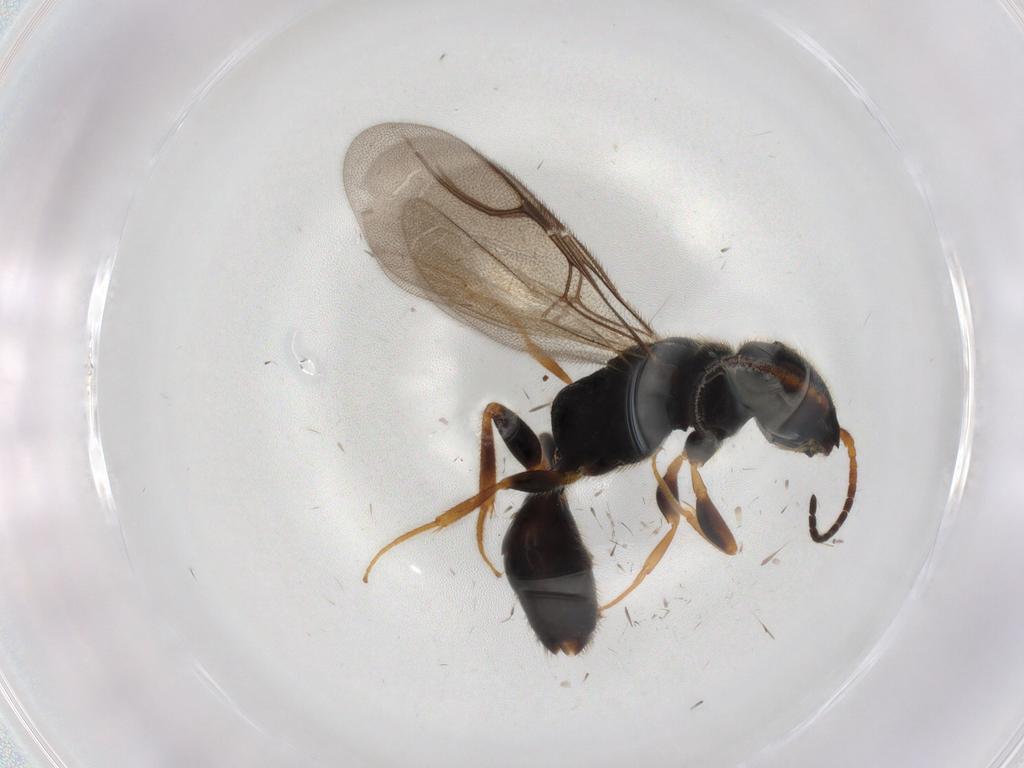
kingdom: Animalia
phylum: Arthropoda
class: Insecta
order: Hymenoptera
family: Bethylidae
